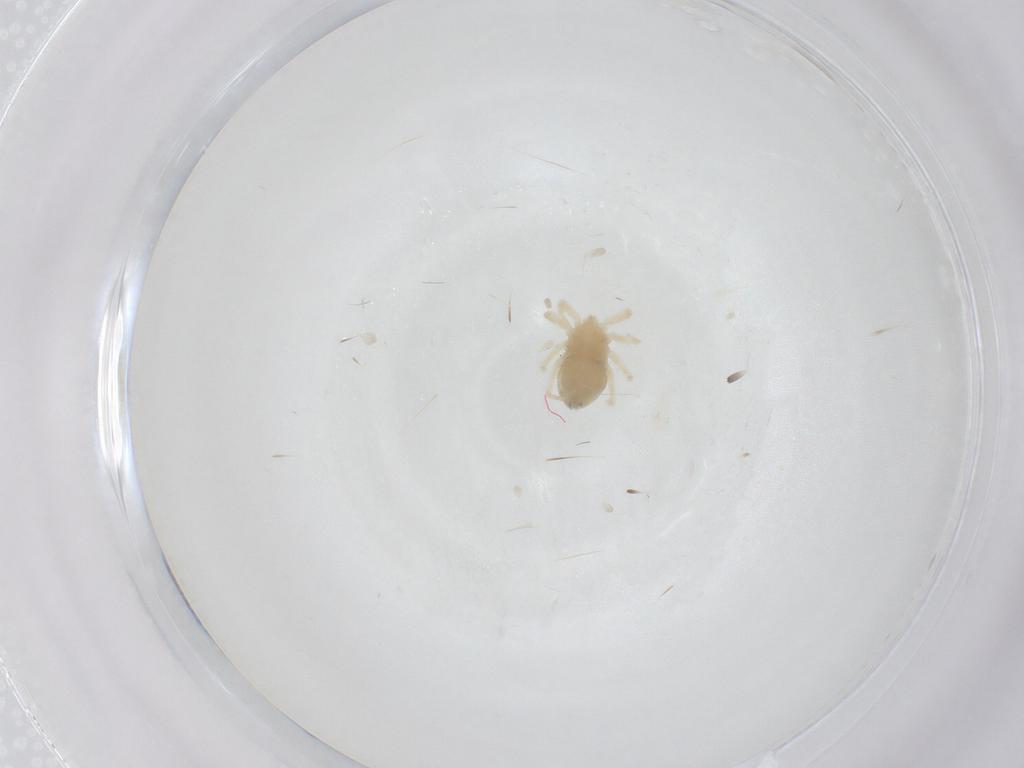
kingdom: Animalia
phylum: Arthropoda
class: Arachnida
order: Trombidiformes
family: Anystidae
